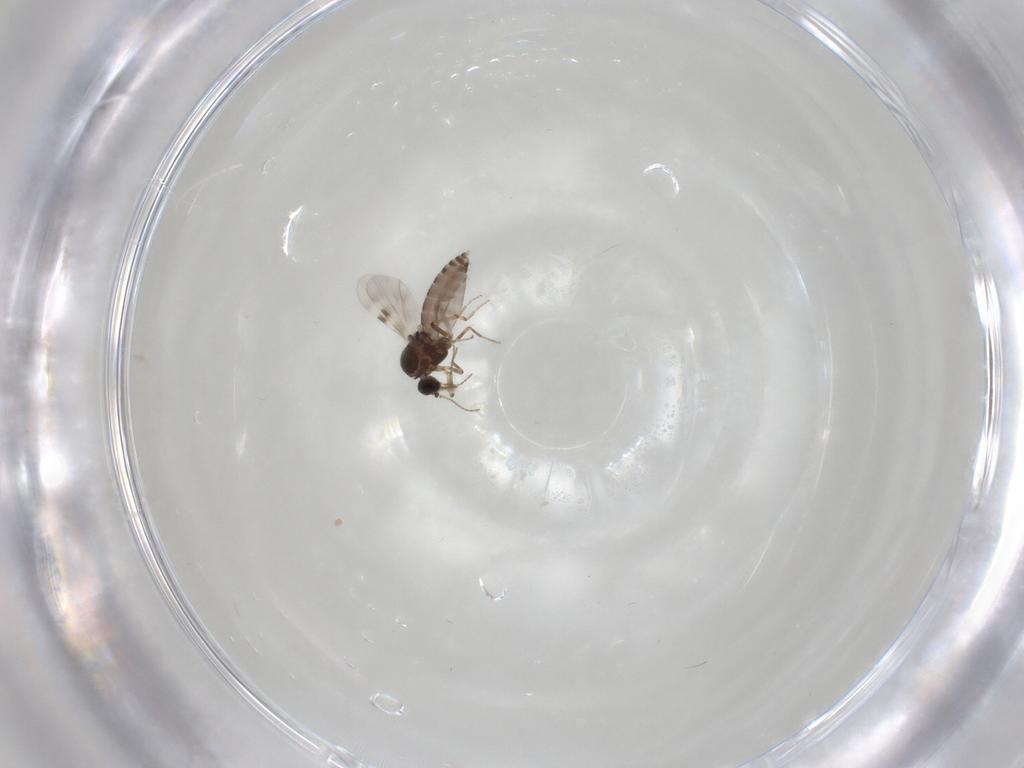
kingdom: Animalia
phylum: Arthropoda
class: Insecta
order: Diptera
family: Chironomidae
